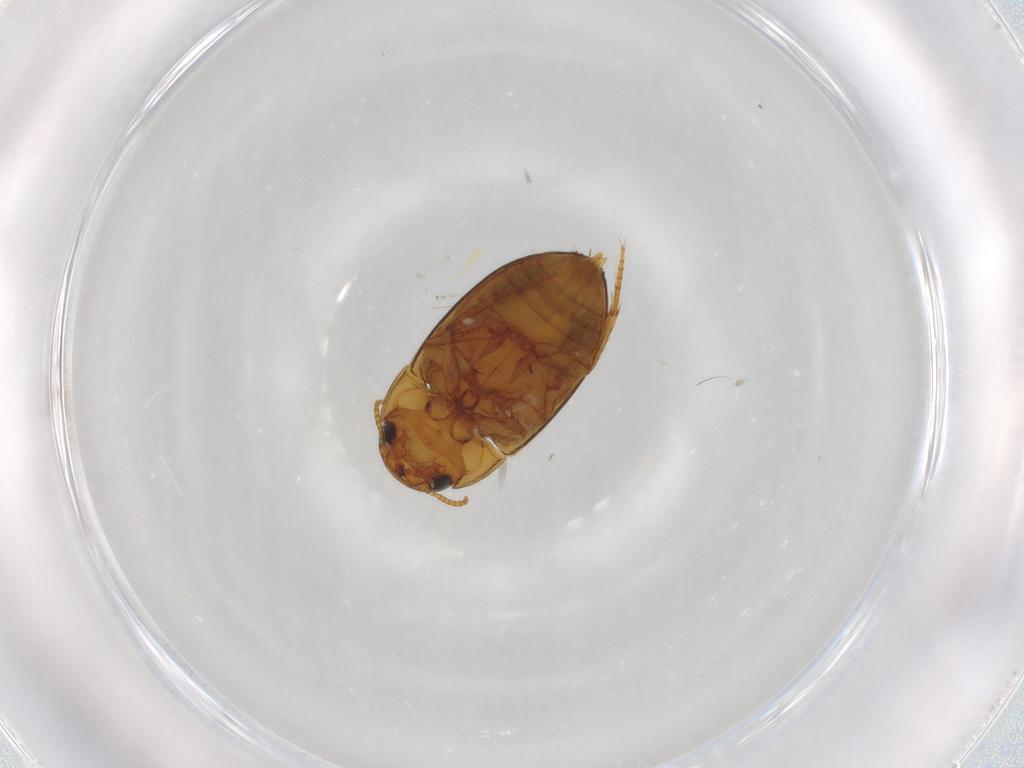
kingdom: Animalia
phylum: Arthropoda
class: Insecta
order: Coleoptera
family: Noteridae
